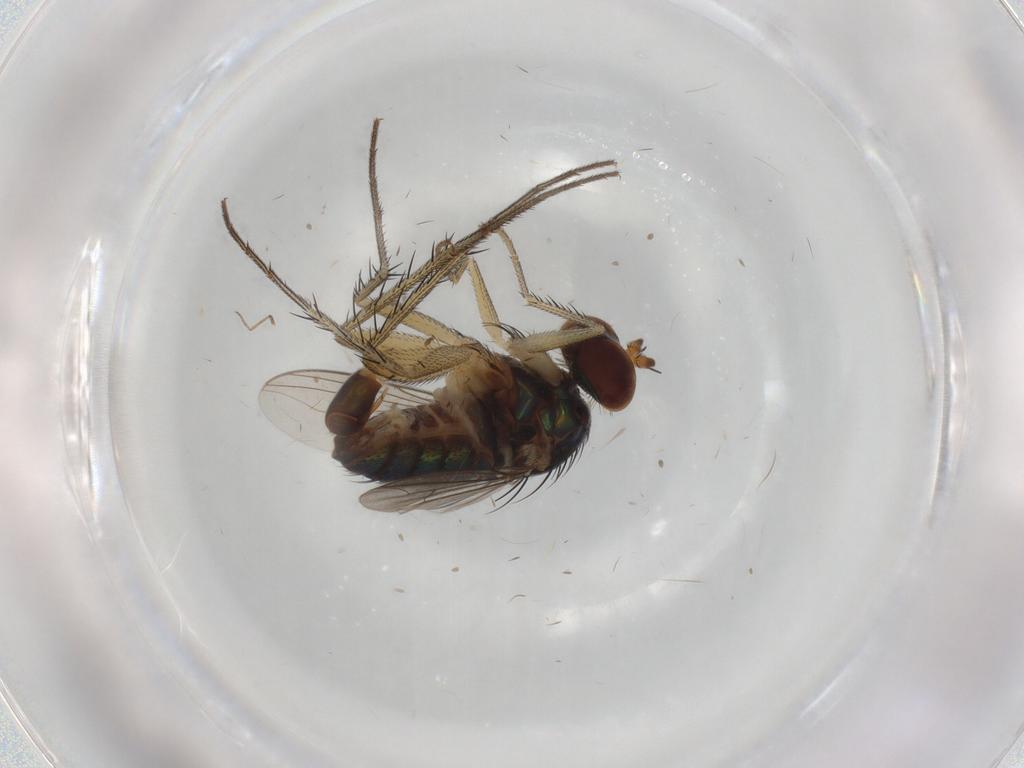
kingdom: Animalia
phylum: Arthropoda
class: Insecta
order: Diptera
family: Dolichopodidae
